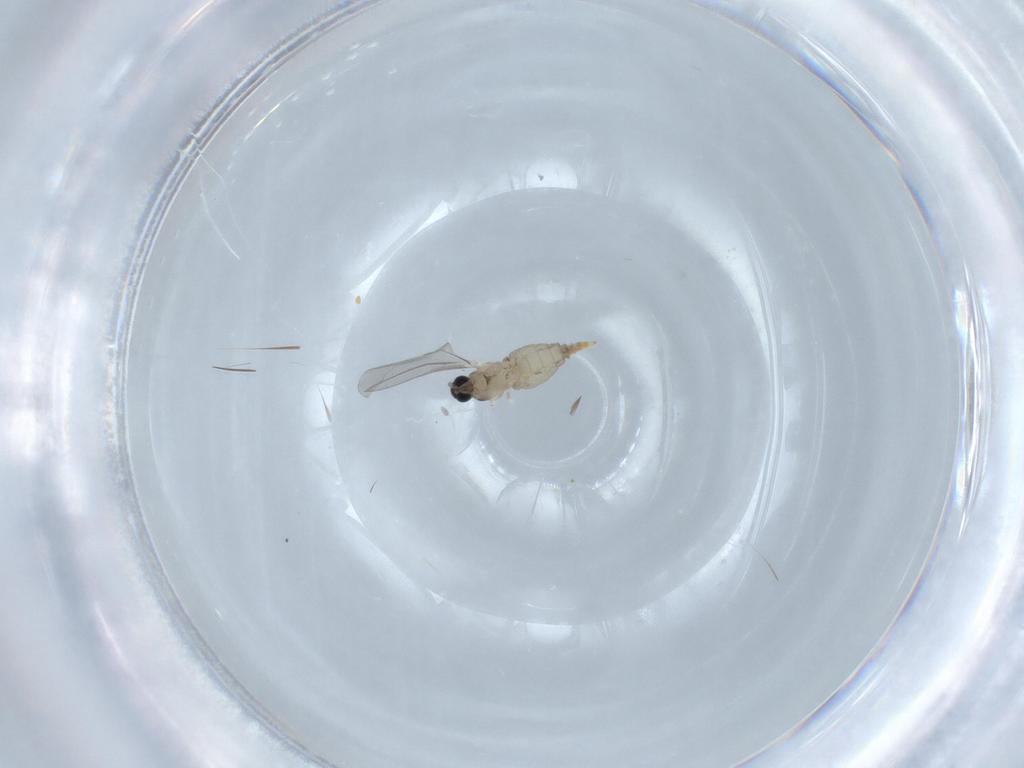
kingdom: Animalia
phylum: Arthropoda
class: Insecta
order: Diptera
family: Cecidomyiidae
